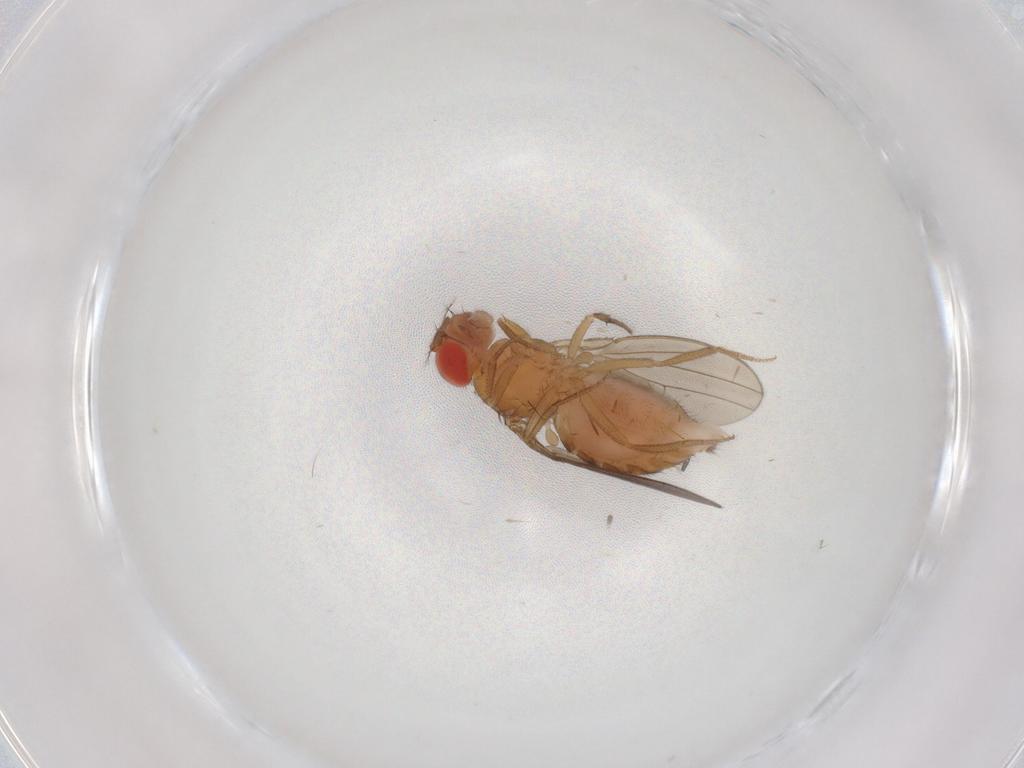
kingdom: Animalia
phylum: Arthropoda
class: Insecta
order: Diptera
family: Drosophilidae
